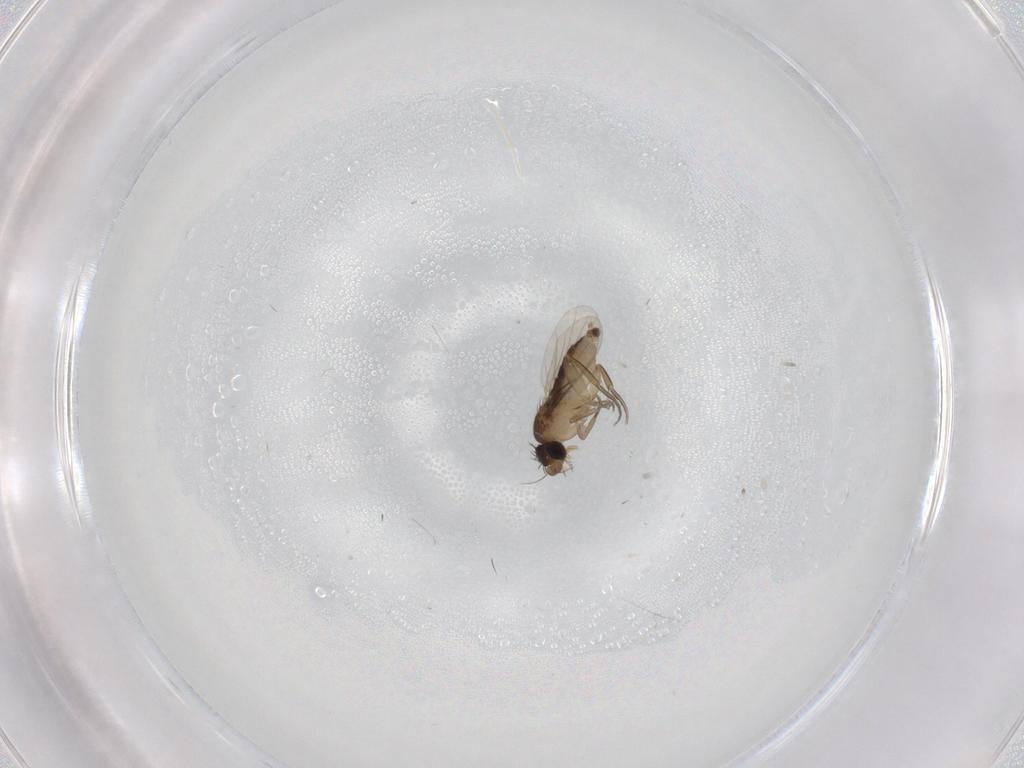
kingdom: Animalia
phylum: Arthropoda
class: Insecta
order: Diptera
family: Phoridae
